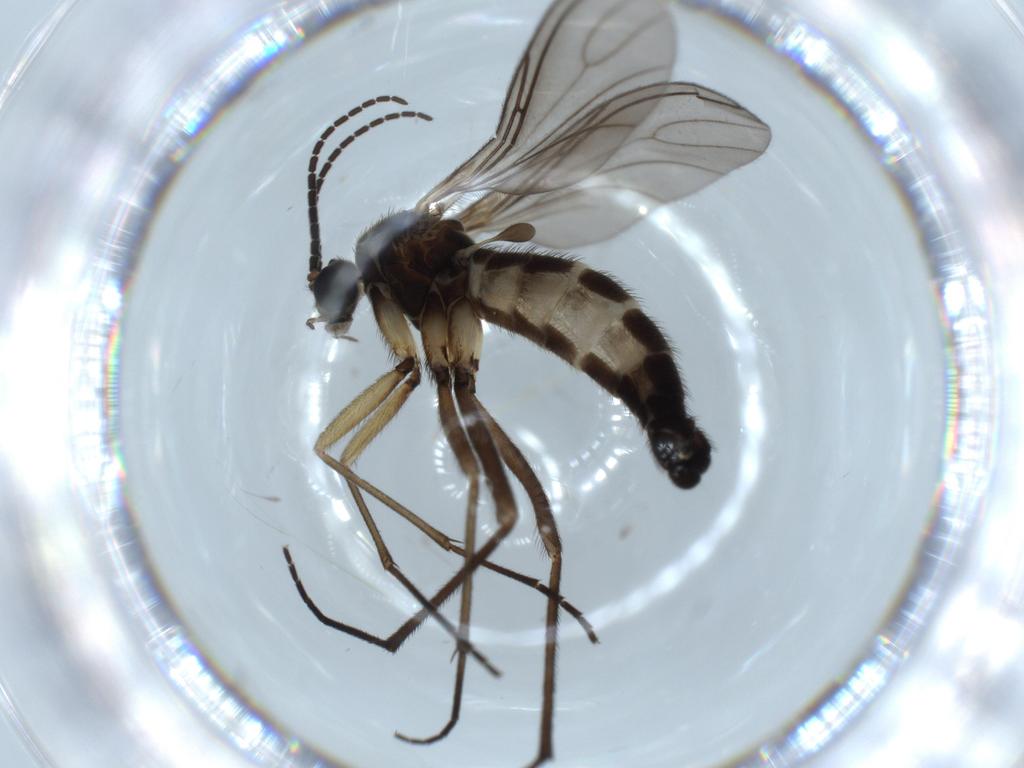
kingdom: Animalia
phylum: Arthropoda
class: Insecta
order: Diptera
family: Sciaridae
